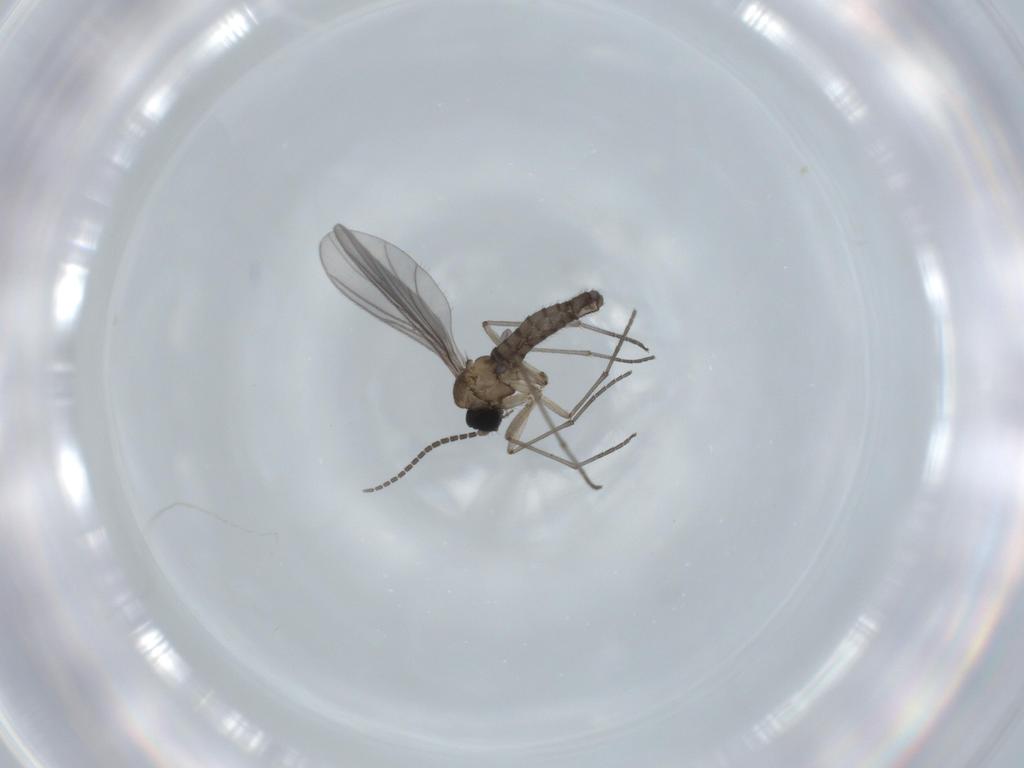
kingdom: Animalia
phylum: Arthropoda
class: Insecta
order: Diptera
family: Sciaridae
